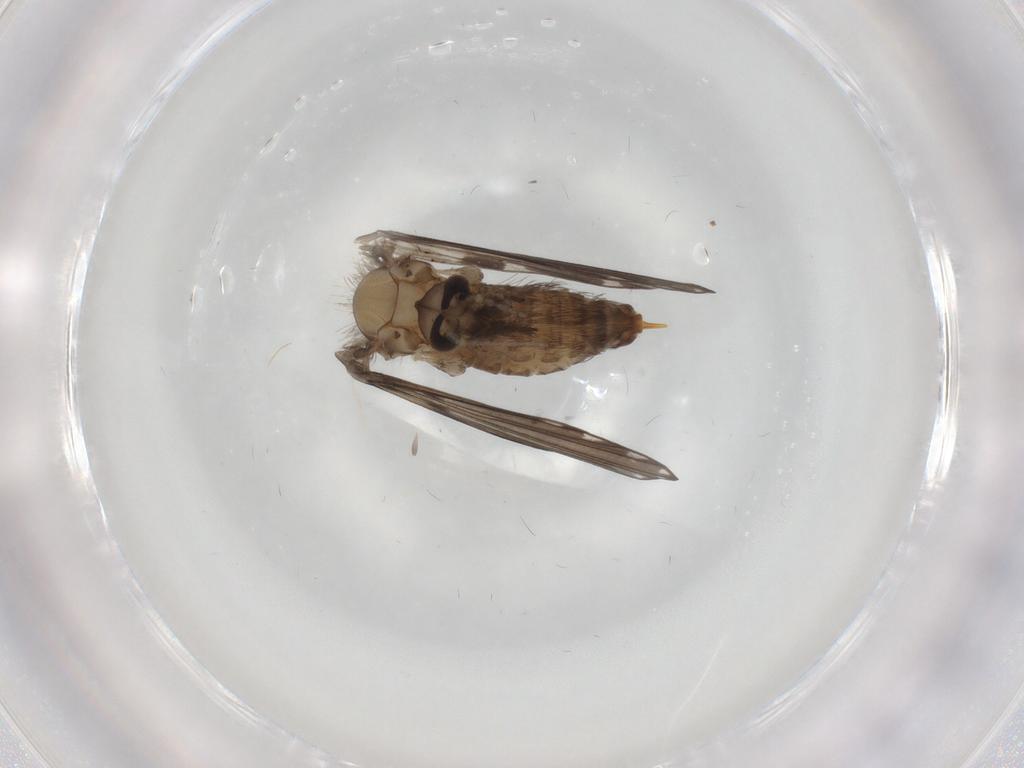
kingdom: Animalia
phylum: Arthropoda
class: Insecta
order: Diptera
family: Psychodidae
